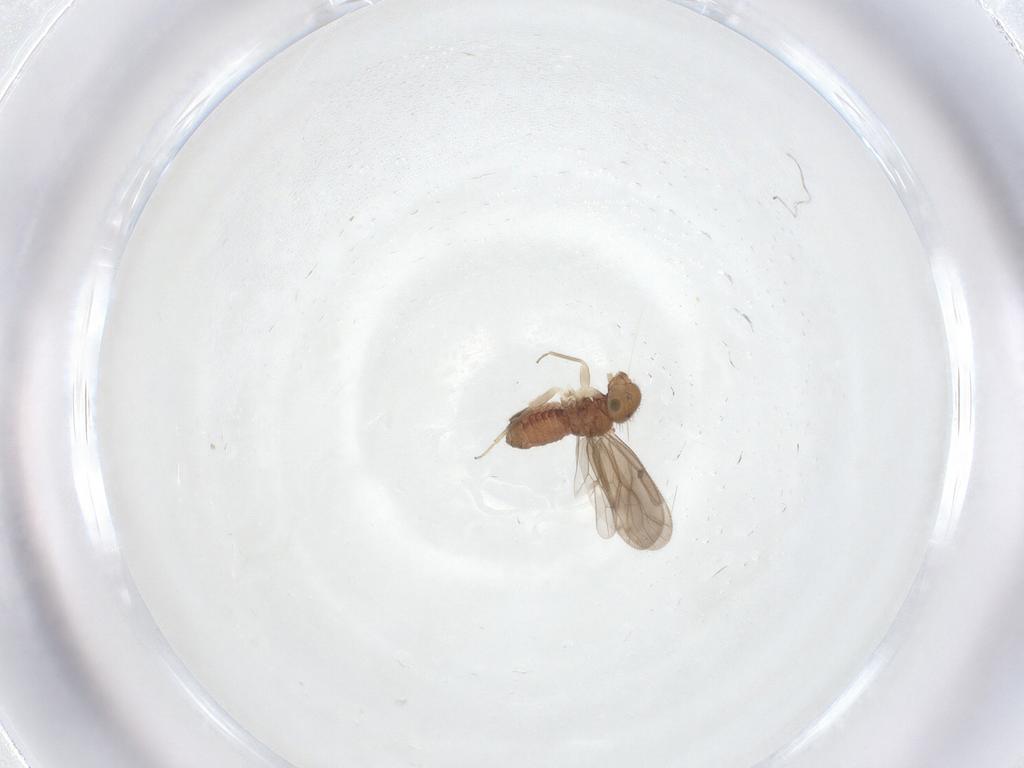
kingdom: Animalia
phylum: Arthropoda
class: Insecta
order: Psocodea
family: Ectopsocidae
